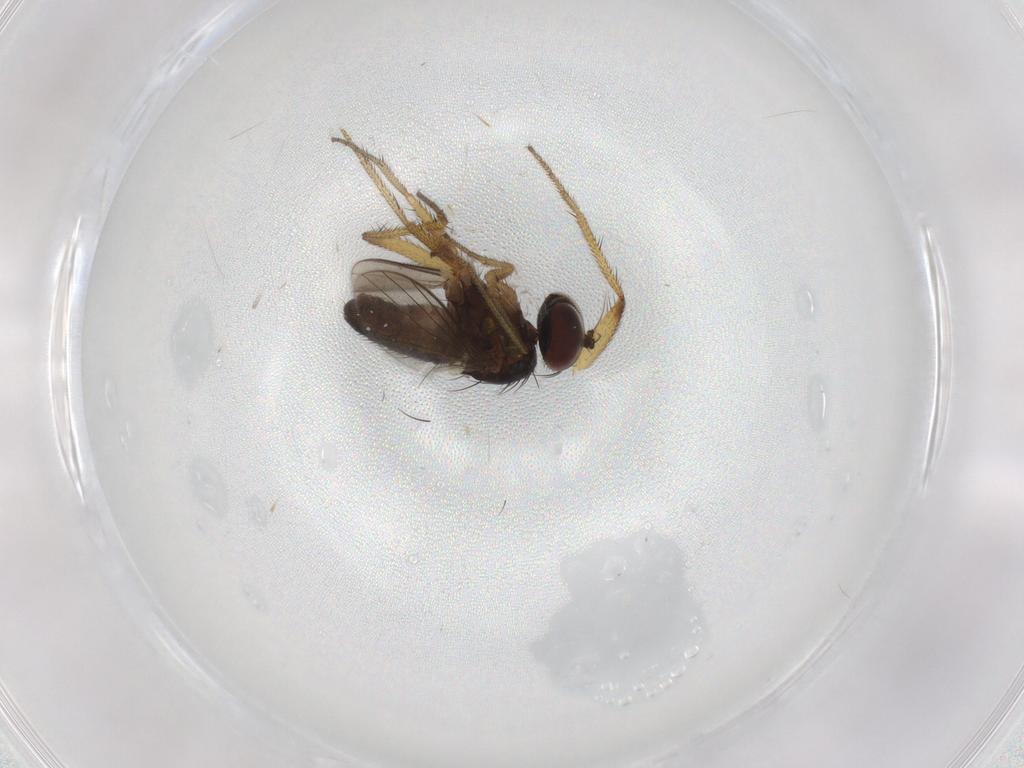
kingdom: Animalia
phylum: Arthropoda
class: Insecta
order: Diptera
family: Dolichopodidae
